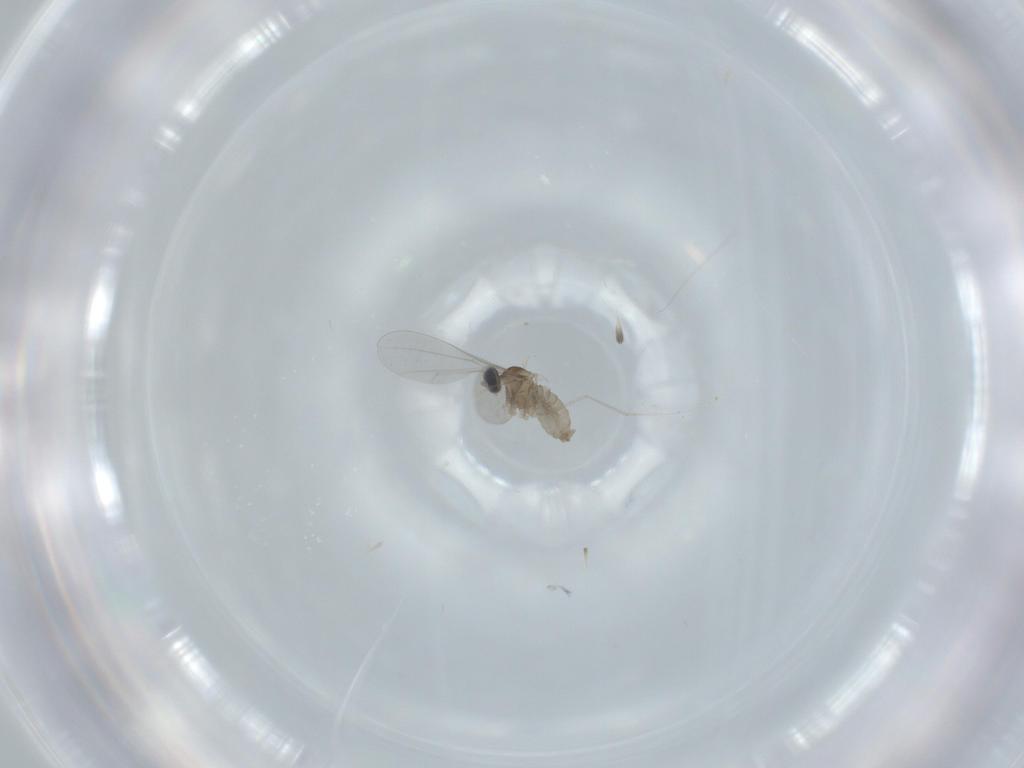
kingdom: Animalia
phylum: Arthropoda
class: Insecta
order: Diptera
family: Cecidomyiidae
